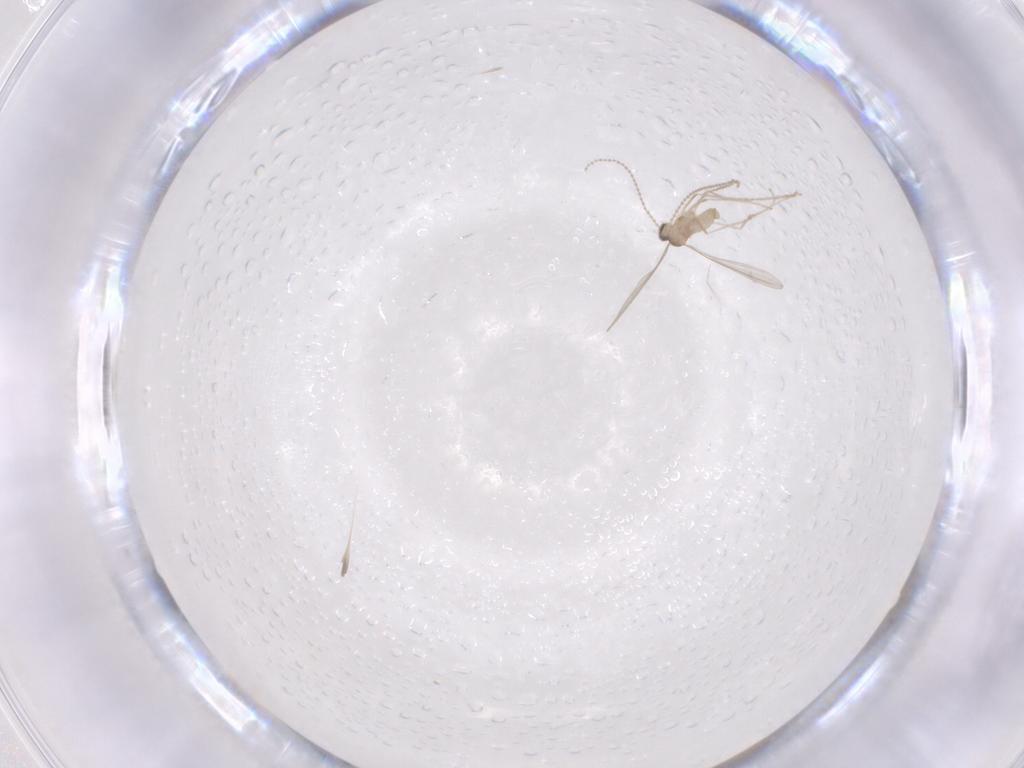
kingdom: Animalia
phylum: Arthropoda
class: Insecta
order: Diptera
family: Cecidomyiidae
